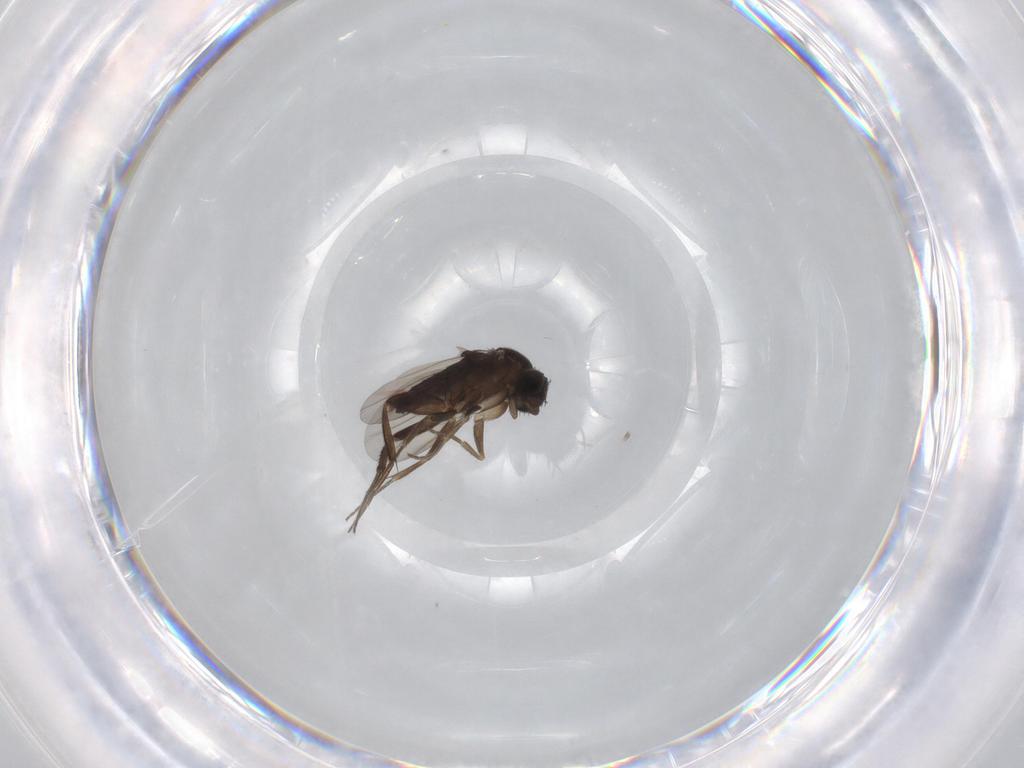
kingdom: Animalia
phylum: Arthropoda
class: Insecta
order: Diptera
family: Phoridae
